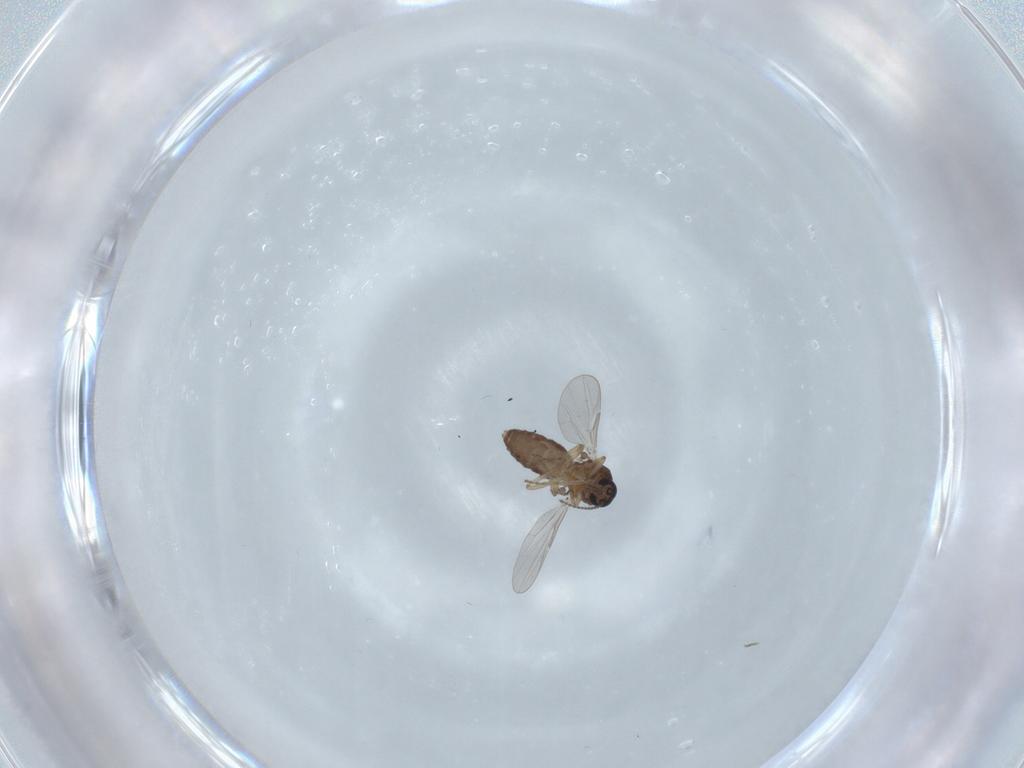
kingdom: Animalia
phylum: Arthropoda
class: Insecta
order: Diptera
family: Ceratopogonidae
